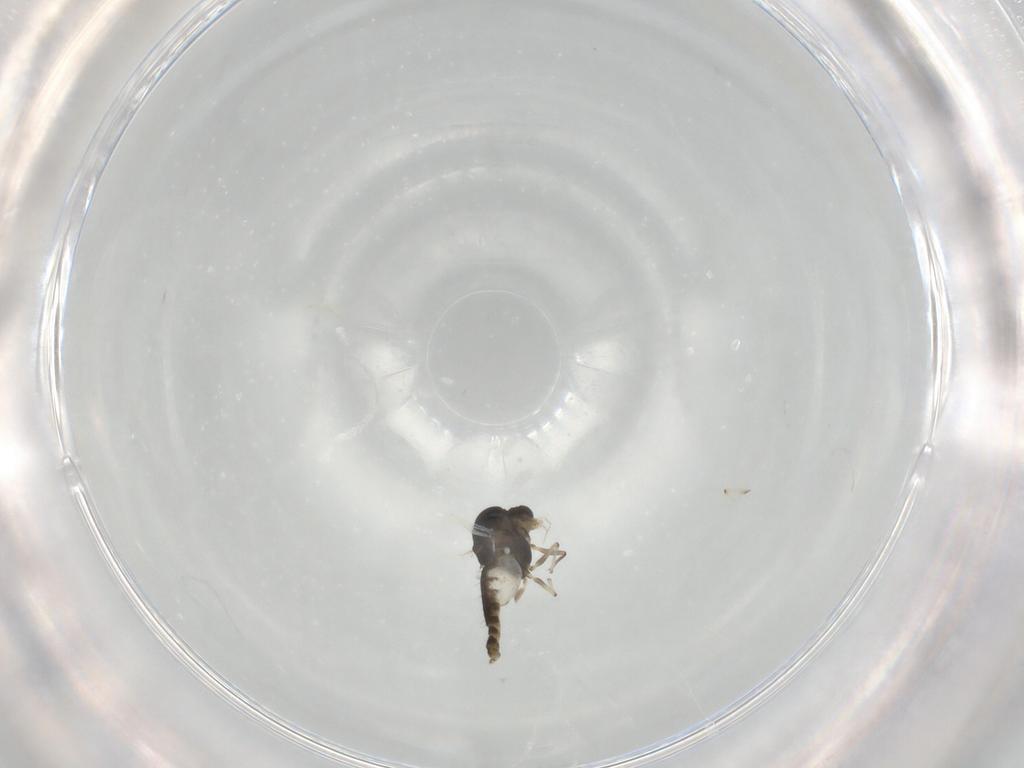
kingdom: Animalia
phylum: Arthropoda
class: Insecta
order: Diptera
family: Chironomidae
